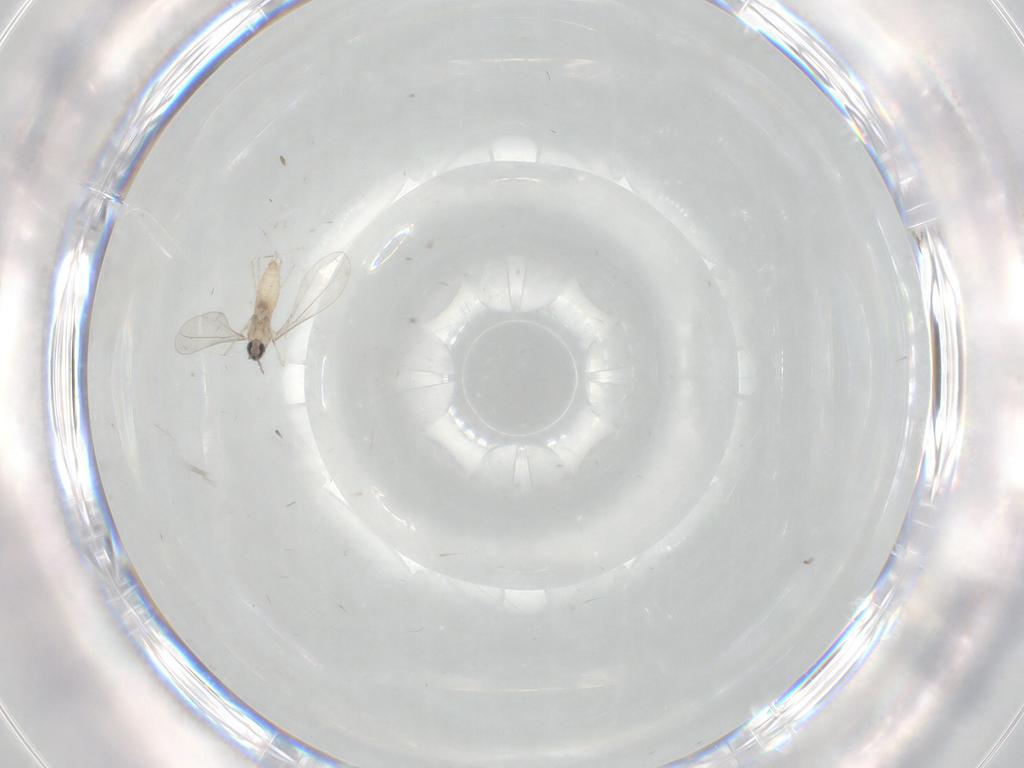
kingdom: Animalia
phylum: Arthropoda
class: Insecta
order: Diptera
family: Cecidomyiidae
